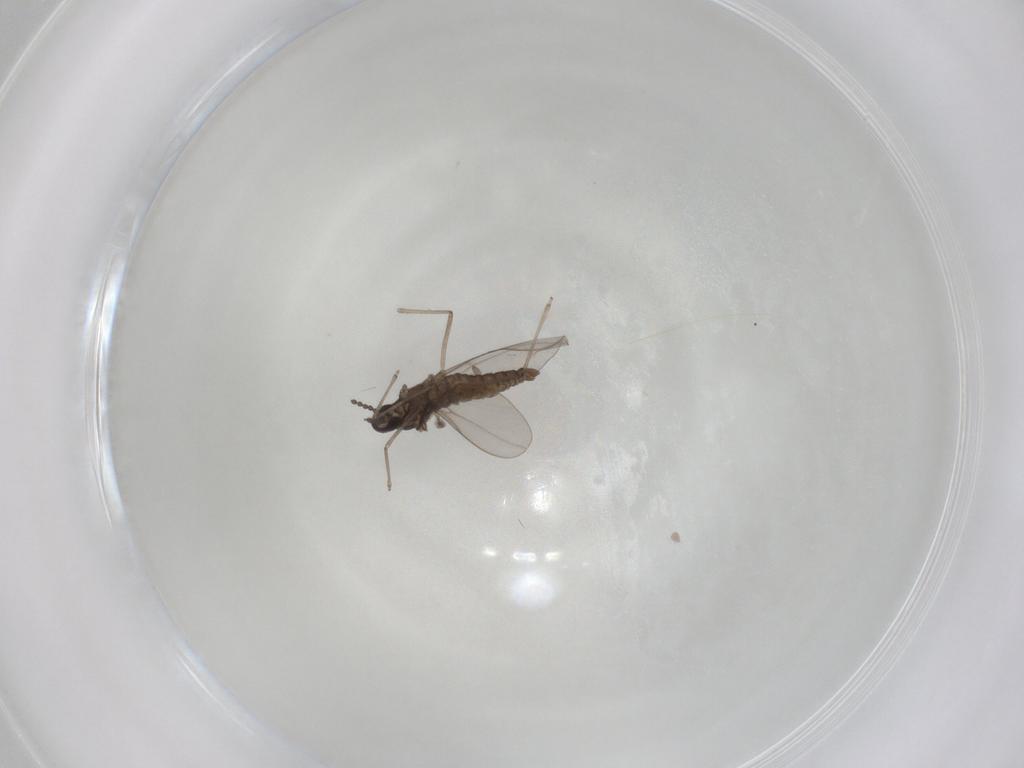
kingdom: Animalia
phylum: Arthropoda
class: Insecta
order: Diptera
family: Cecidomyiidae
